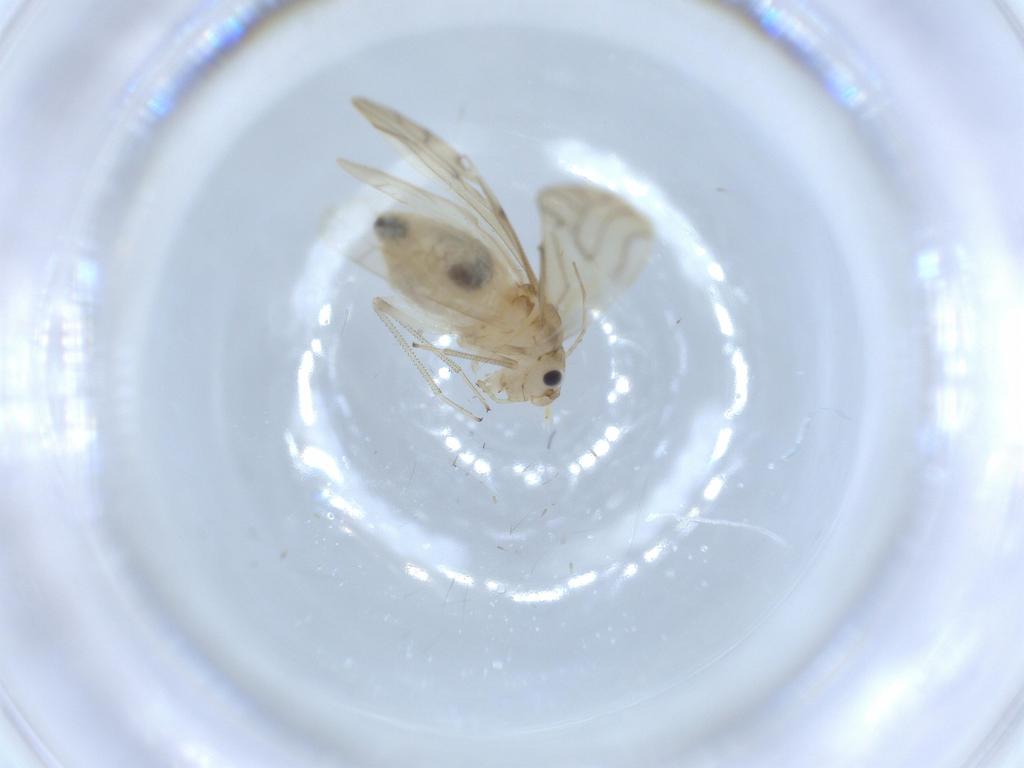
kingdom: Animalia
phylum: Arthropoda
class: Insecta
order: Psocodea
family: Caeciliusidae
